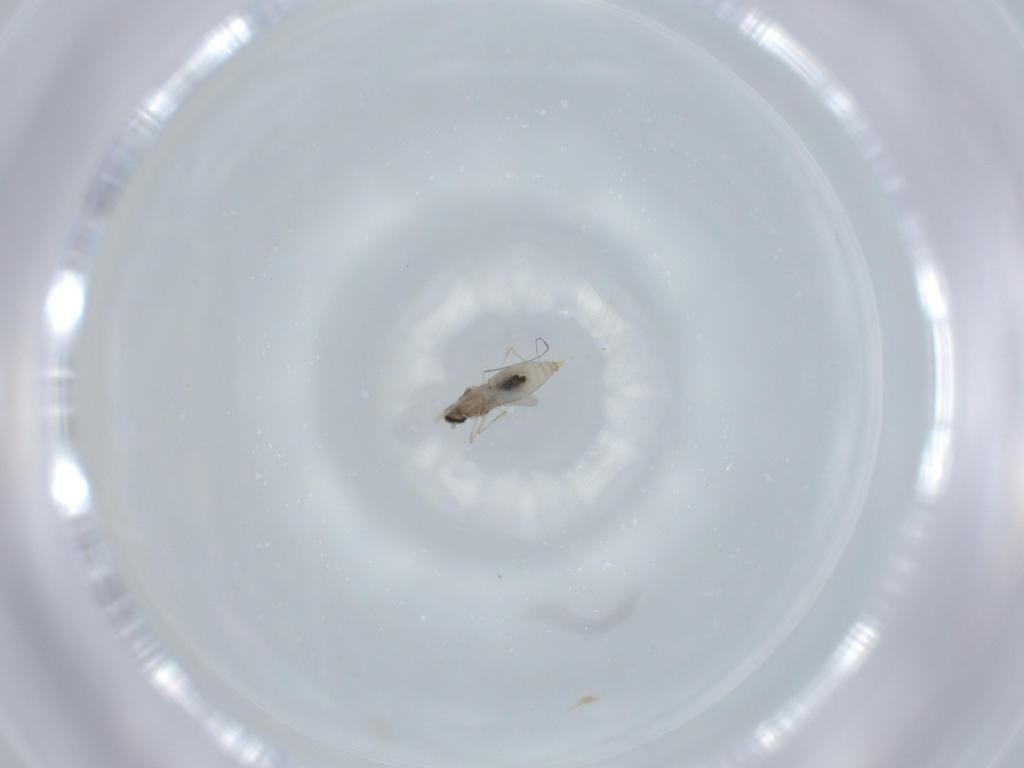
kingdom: Animalia
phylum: Arthropoda
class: Insecta
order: Diptera
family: Cecidomyiidae
